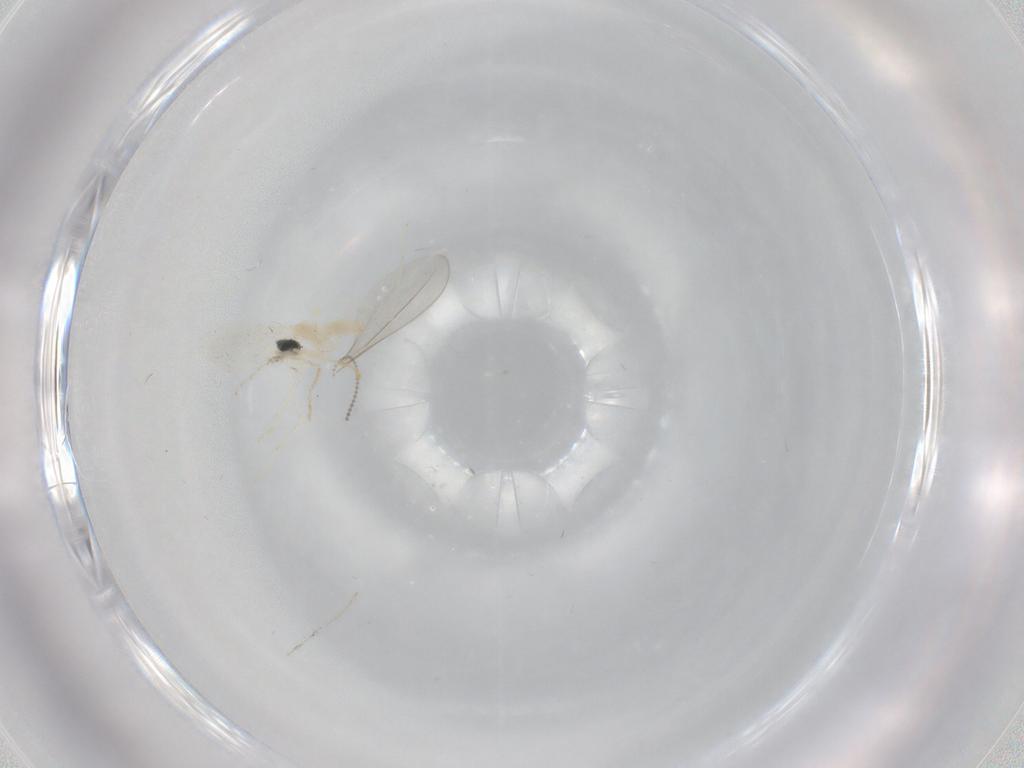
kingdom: Animalia
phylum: Arthropoda
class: Insecta
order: Diptera
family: Cecidomyiidae
